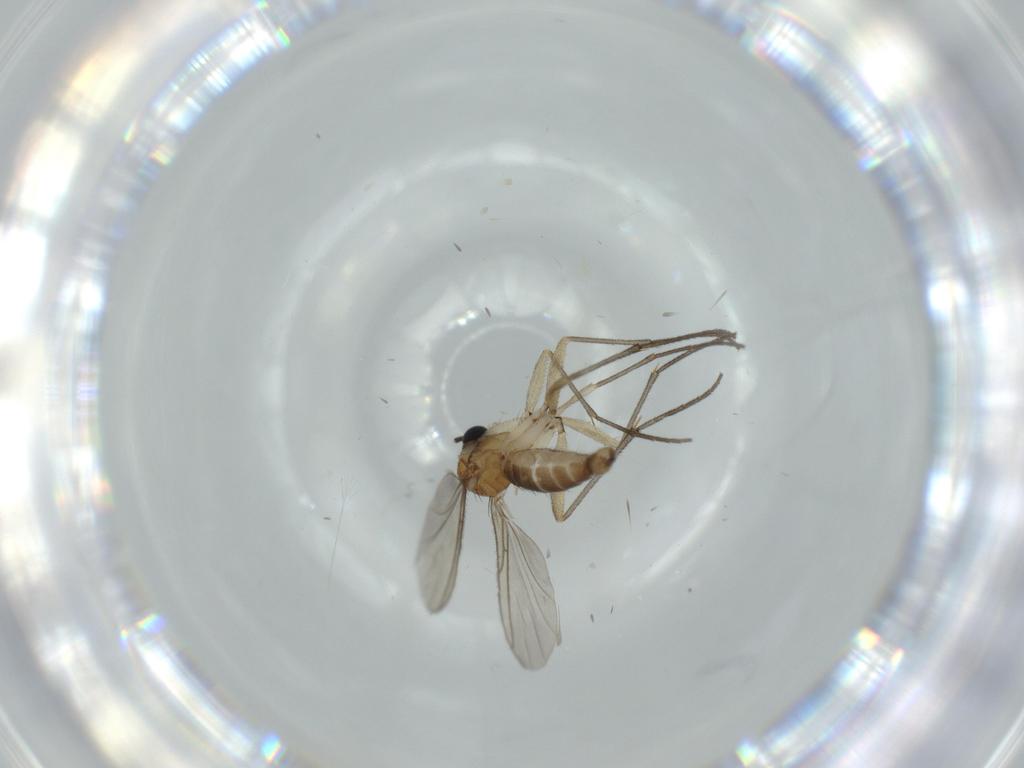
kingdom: Animalia
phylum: Arthropoda
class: Insecta
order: Diptera
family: Sciaridae
